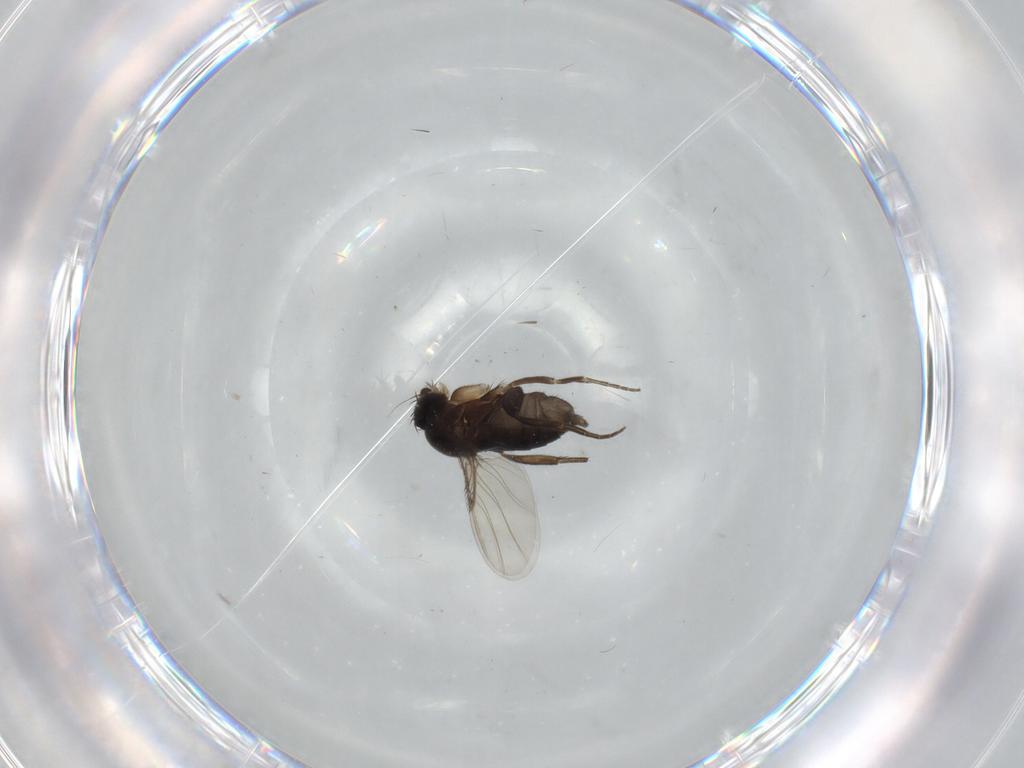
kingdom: Animalia
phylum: Arthropoda
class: Insecta
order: Diptera
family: Phoridae
